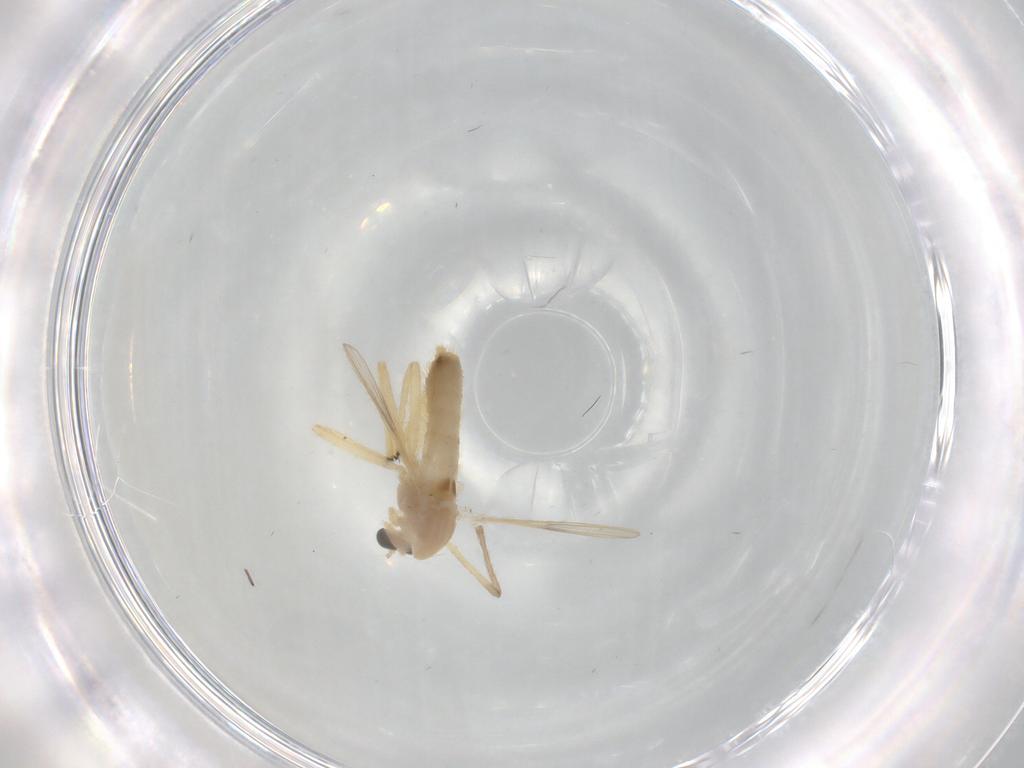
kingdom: Animalia
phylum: Arthropoda
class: Insecta
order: Diptera
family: Chironomidae
